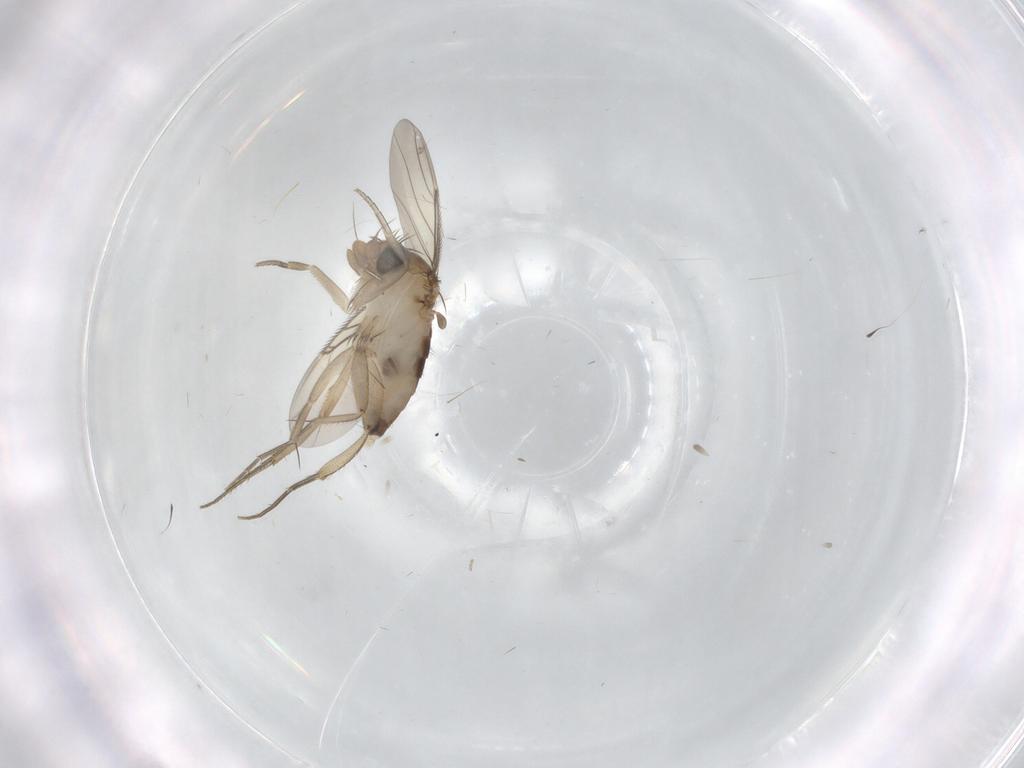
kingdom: Animalia
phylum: Arthropoda
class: Insecta
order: Diptera
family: Phoridae
